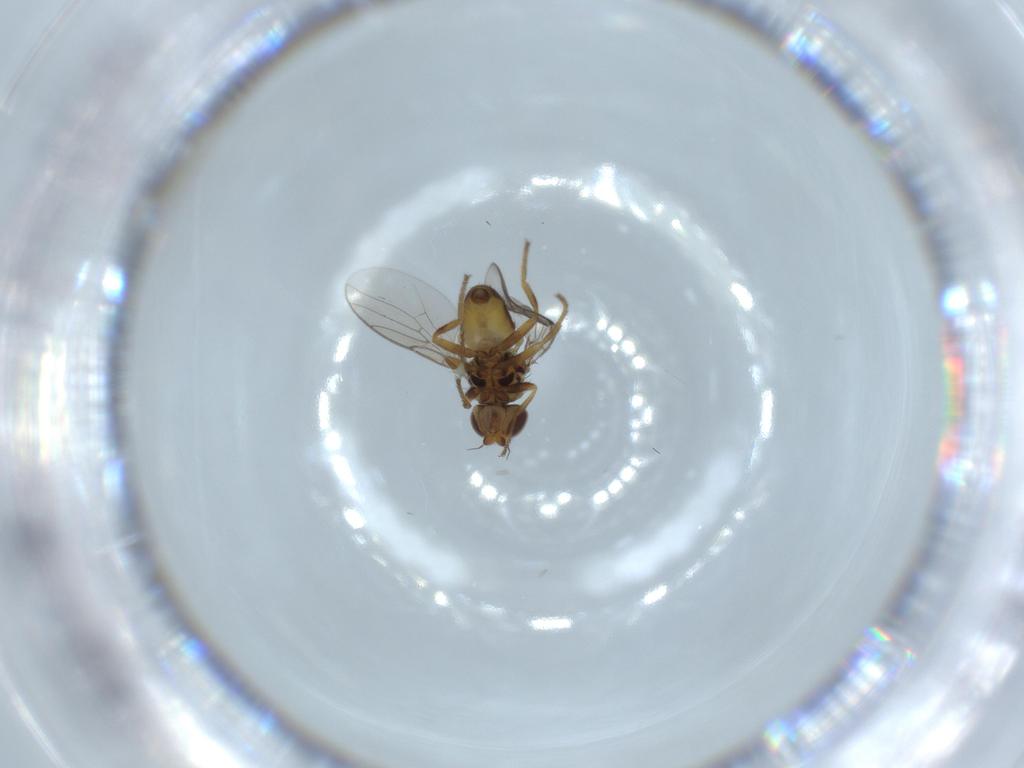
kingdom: Animalia
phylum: Arthropoda
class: Insecta
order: Diptera
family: Chloropidae
